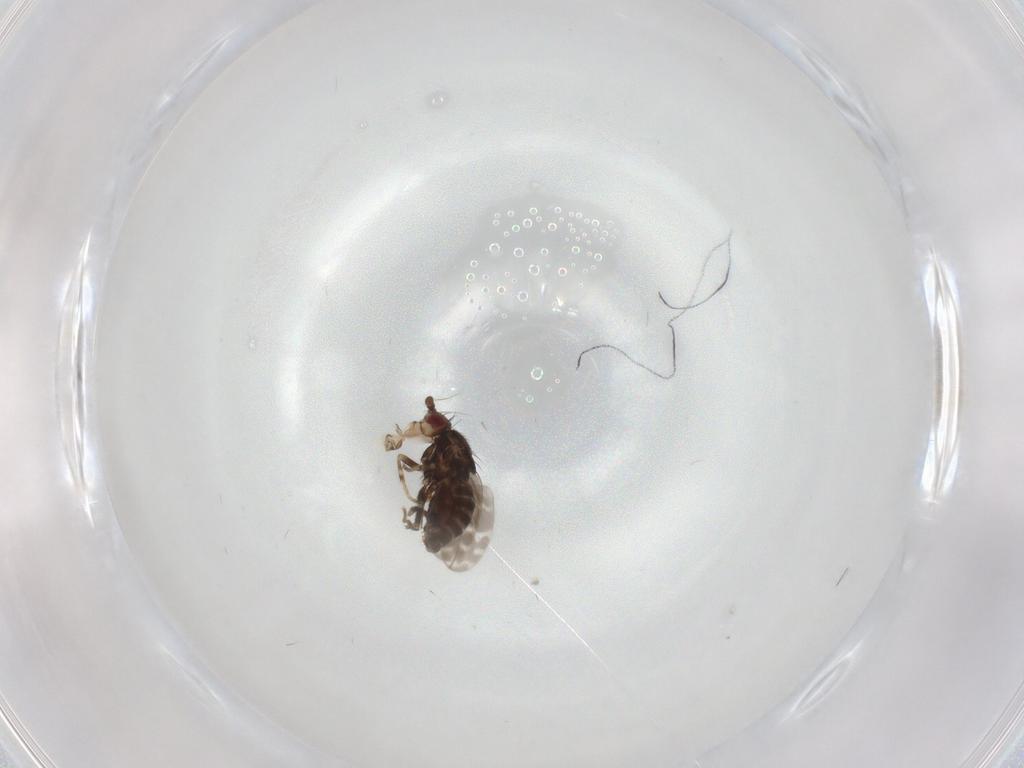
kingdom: Animalia
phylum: Arthropoda
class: Insecta
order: Diptera
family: Sphaeroceridae
